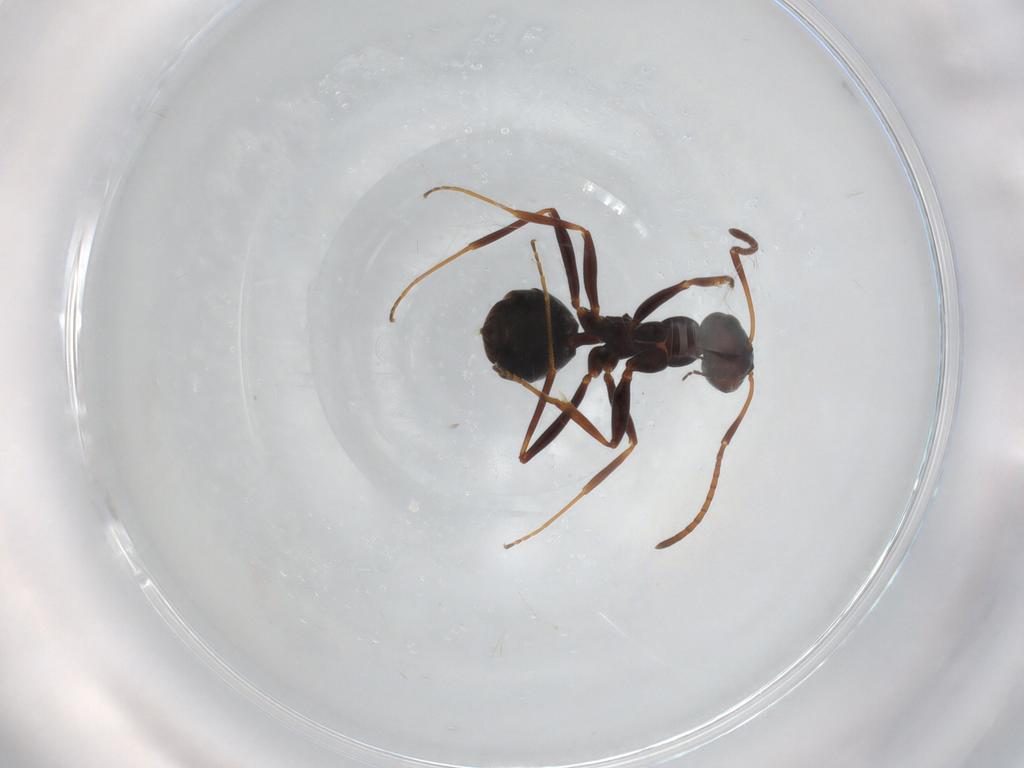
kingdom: Animalia
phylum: Arthropoda
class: Insecta
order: Hymenoptera
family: Formicidae
